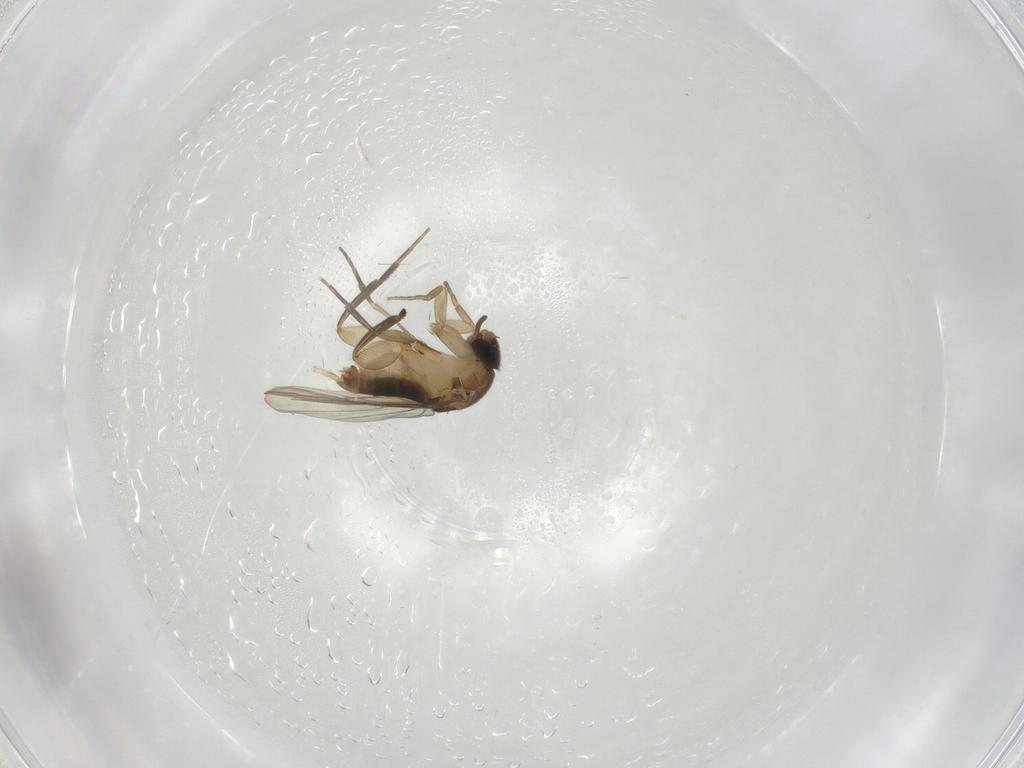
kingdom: Animalia
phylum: Arthropoda
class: Insecta
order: Diptera
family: Phoridae
